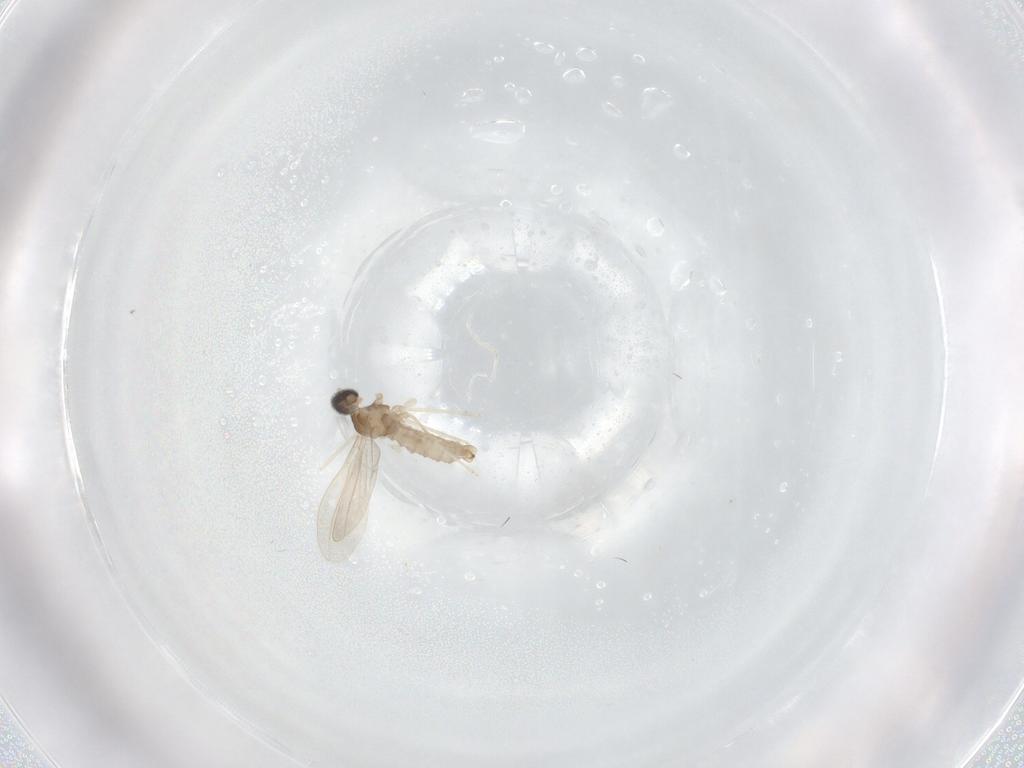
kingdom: Animalia
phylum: Arthropoda
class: Insecta
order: Diptera
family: Cecidomyiidae
